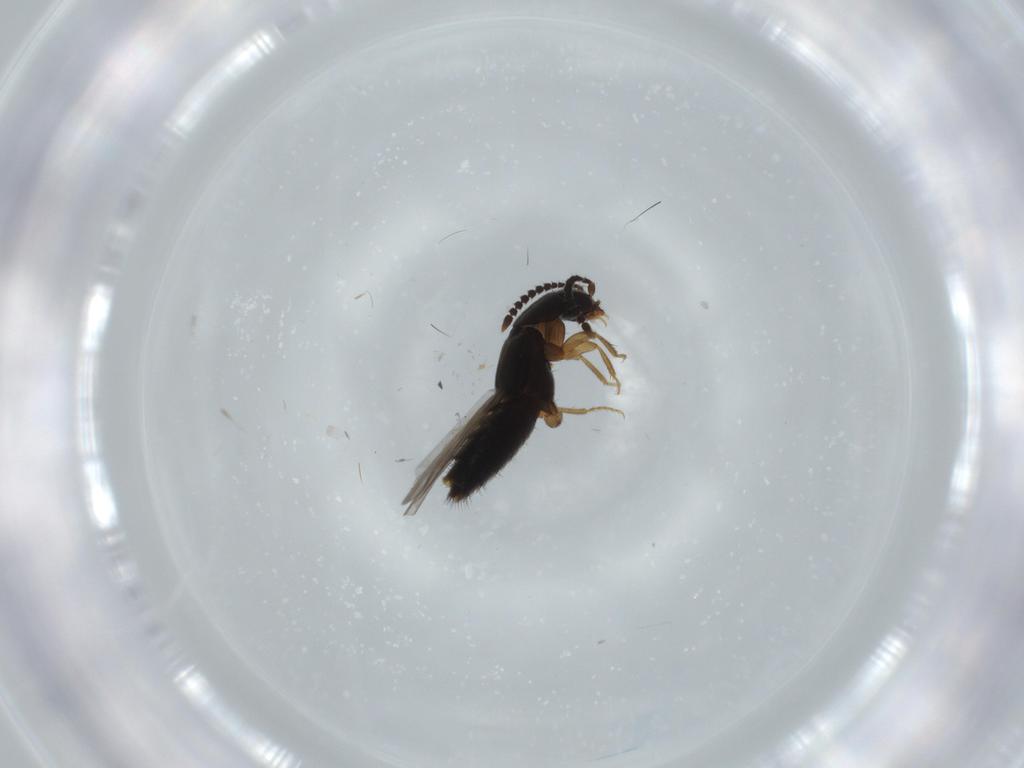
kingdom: Animalia
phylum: Arthropoda
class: Insecta
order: Coleoptera
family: Staphylinidae
